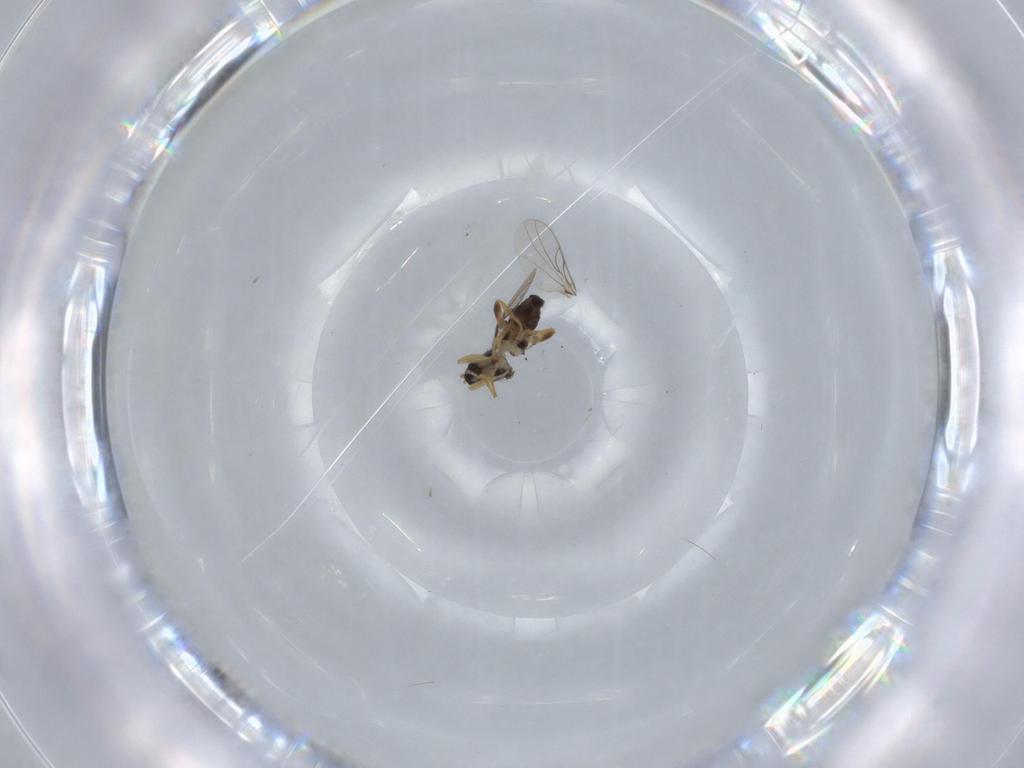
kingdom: Animalia
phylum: Arthropoda
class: Insecta
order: Diptera
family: Hybotidae
